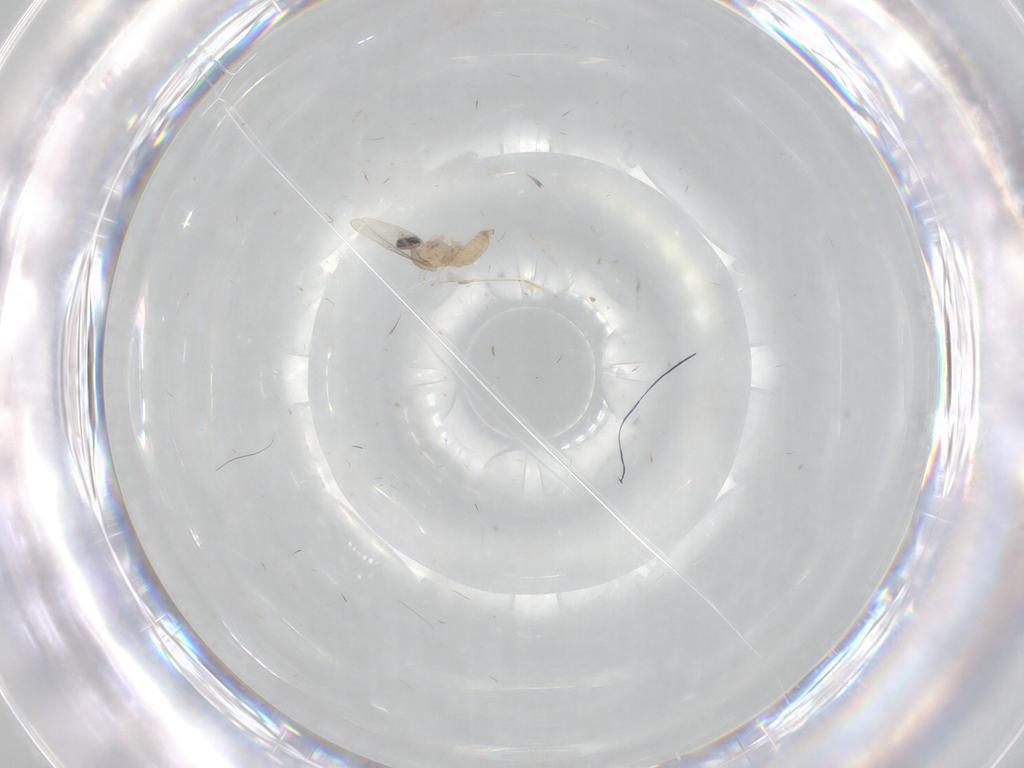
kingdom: Animalia
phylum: Arthropoda
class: Insecta
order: Diptera
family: Cecidomyiidae
